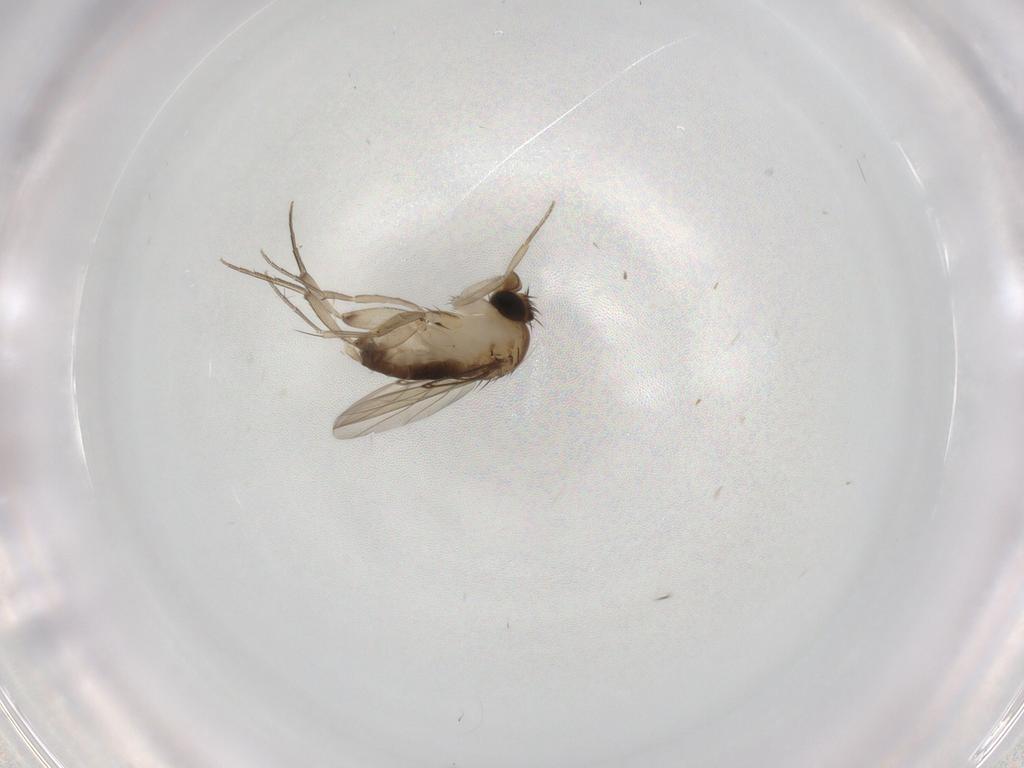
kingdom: Animalia
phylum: Arthropoda
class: Insecta
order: Diptera
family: Phoridae
